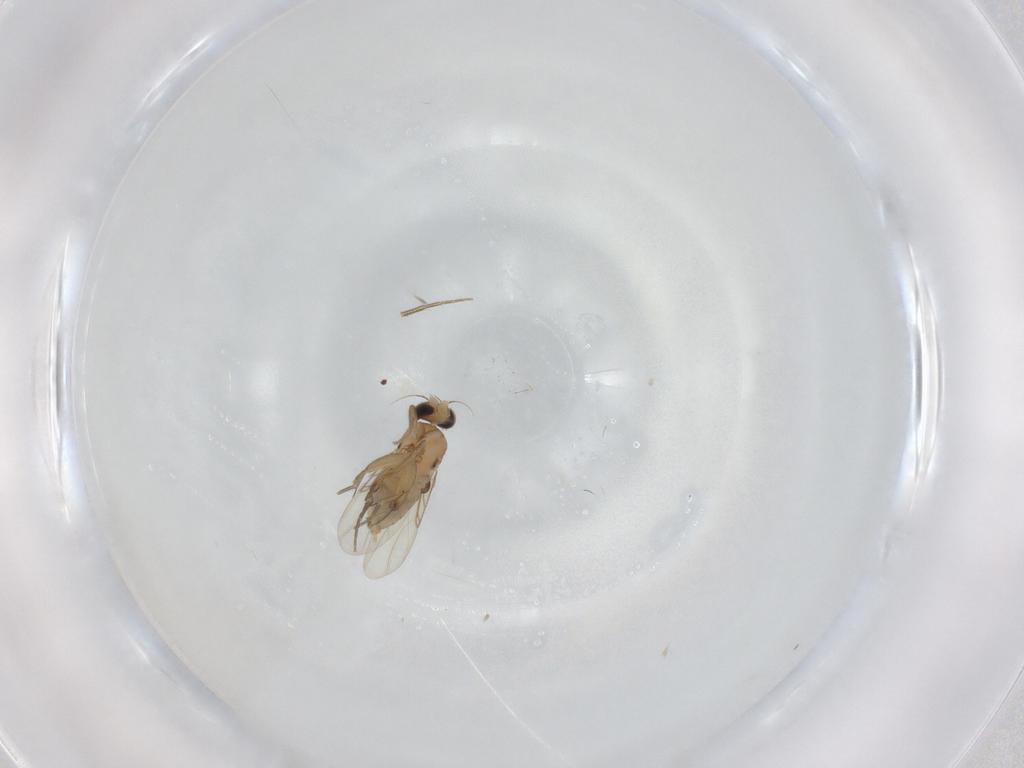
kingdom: Animalia
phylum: Arthropoda
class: Insecta
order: Diptera
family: Phoridae
